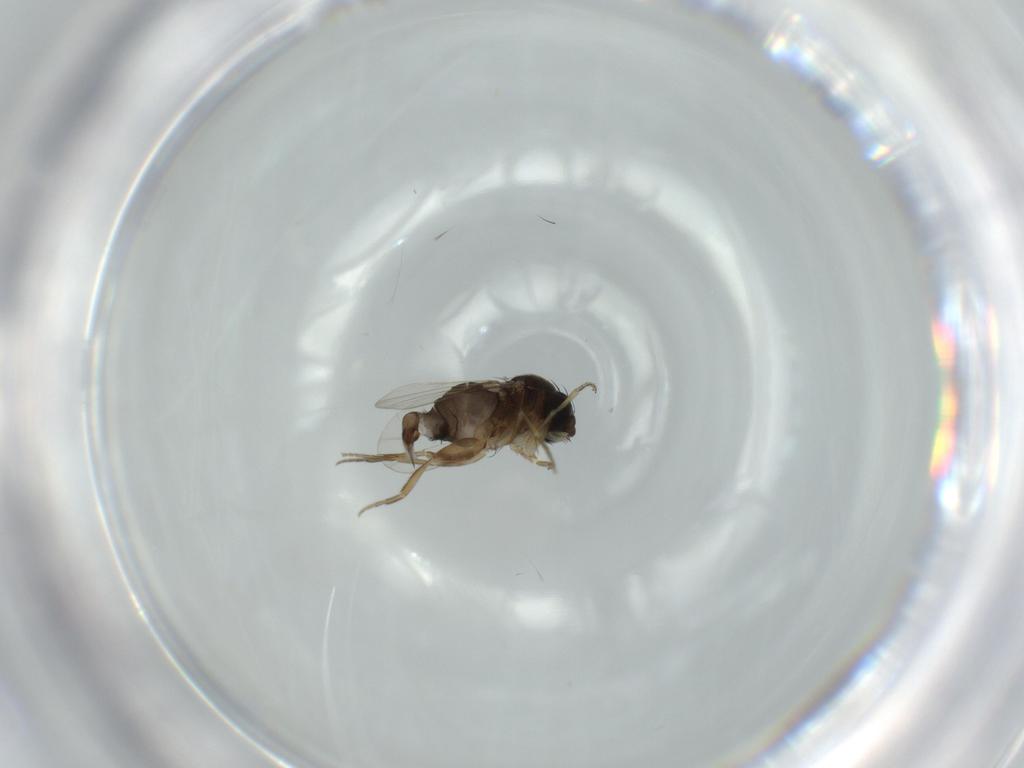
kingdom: Animalia
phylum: Arthropoda
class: Insecta
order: Diptera
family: Phoridae
